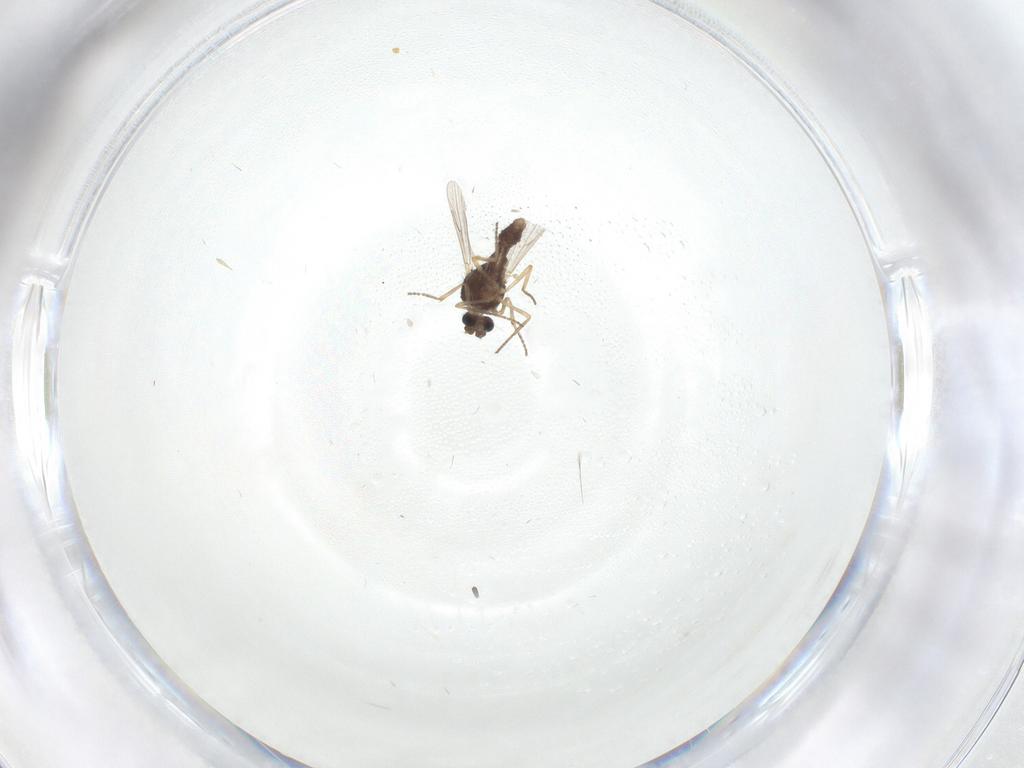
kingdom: Animalia
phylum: Arthropoda
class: Insecta
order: Diptera
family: Ceratopogonidae
